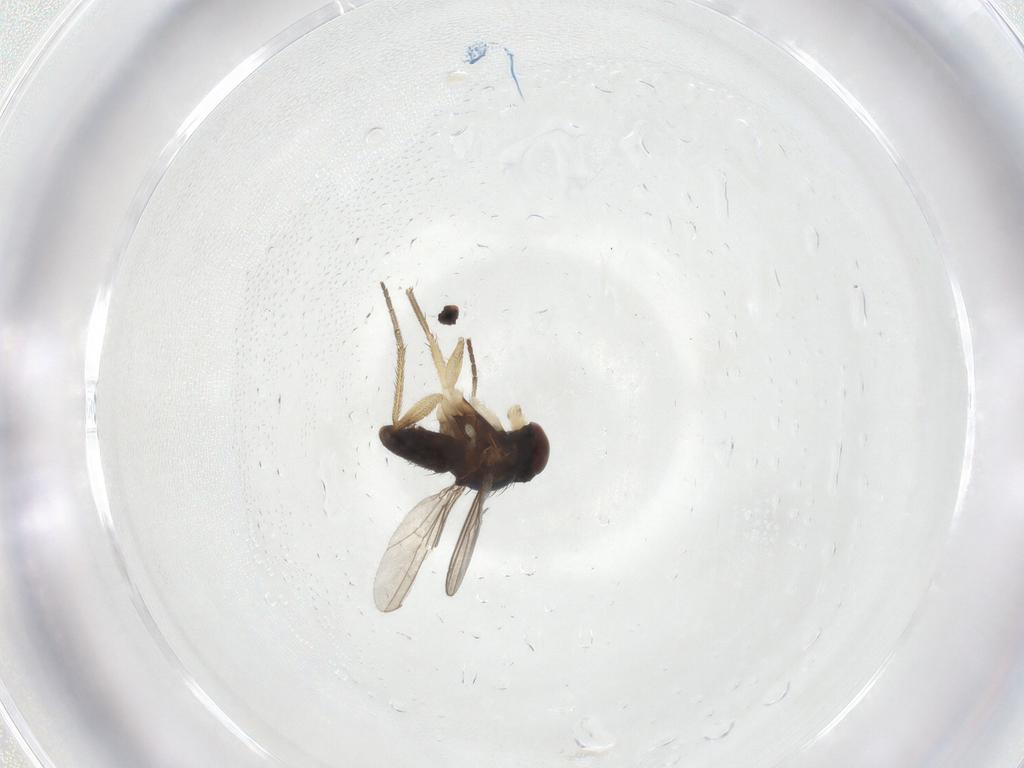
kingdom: Animalia
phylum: Arthropoda
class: Insecta
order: Diptera
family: Dolichopodidae
